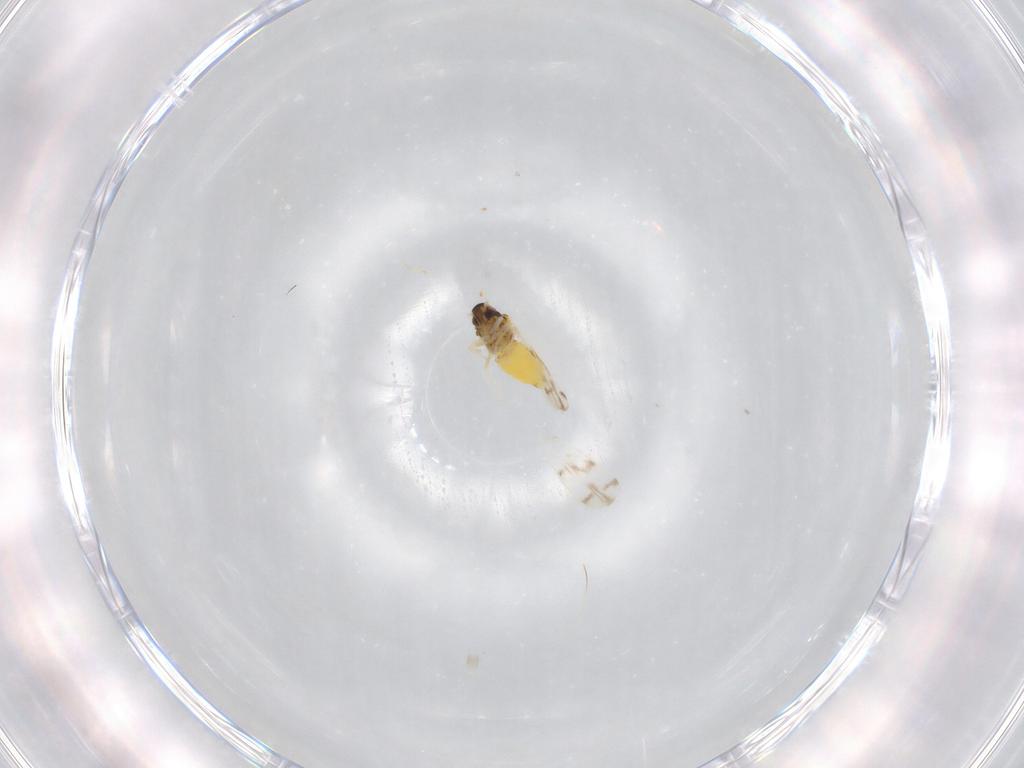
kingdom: Animalia
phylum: Arthropoda
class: Insecta
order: Hemiptera
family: Aleyrodidae
